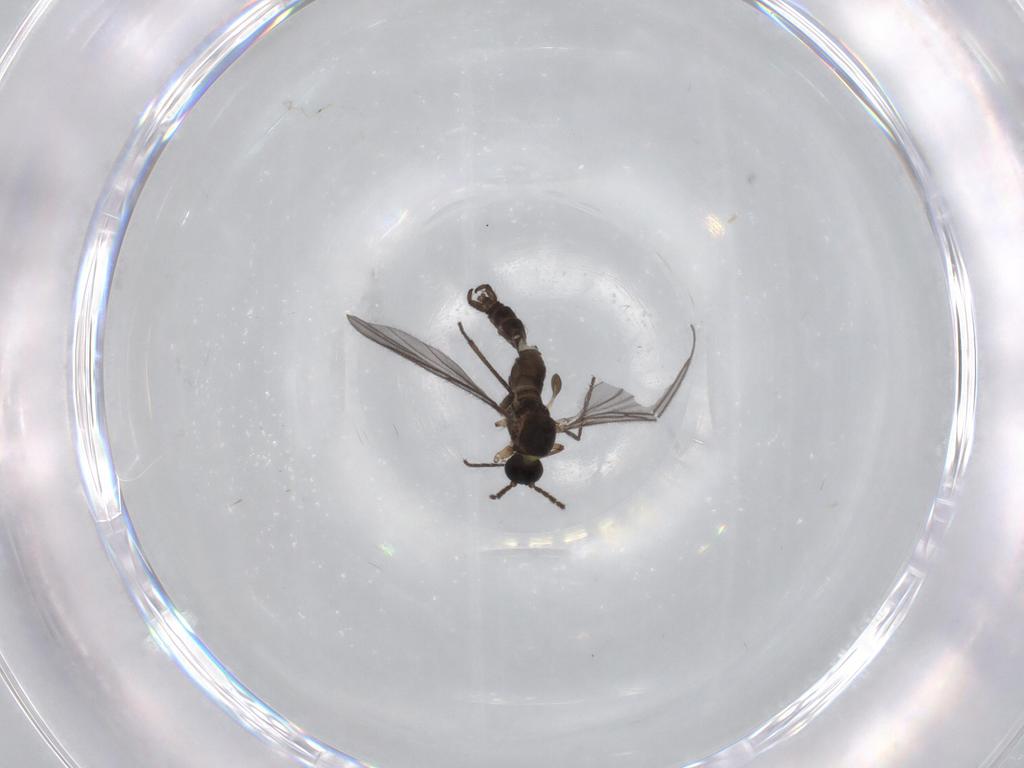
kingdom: Animalia
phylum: Arthropoda
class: Insecta
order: Diptera
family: Sciaridae
